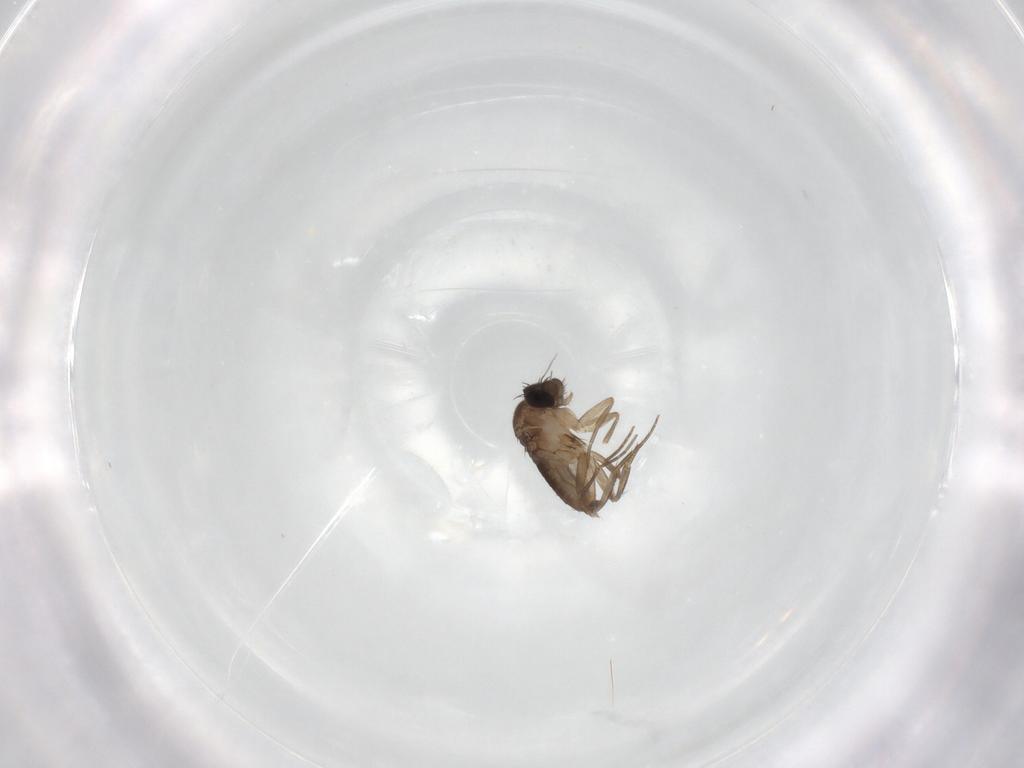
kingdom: Animalia
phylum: Arthropoda
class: Insecta
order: Diptera
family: Phoridae
